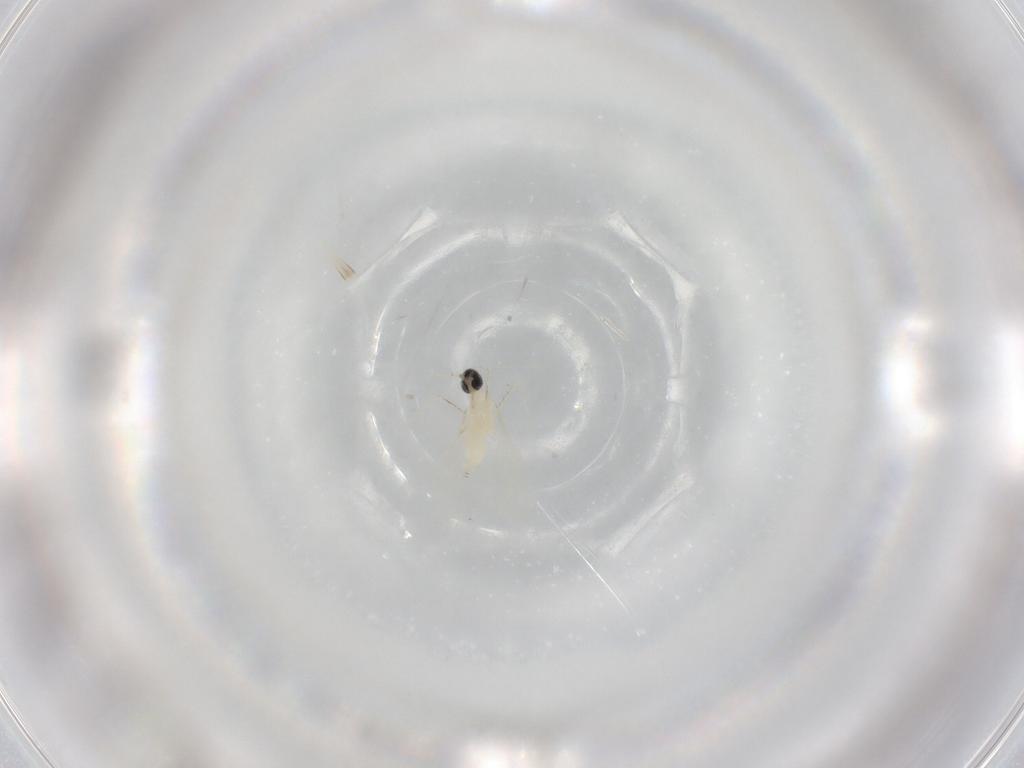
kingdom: Animalia
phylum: Arthropoda
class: Insecta
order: Diptera
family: Cecidomyiidae
